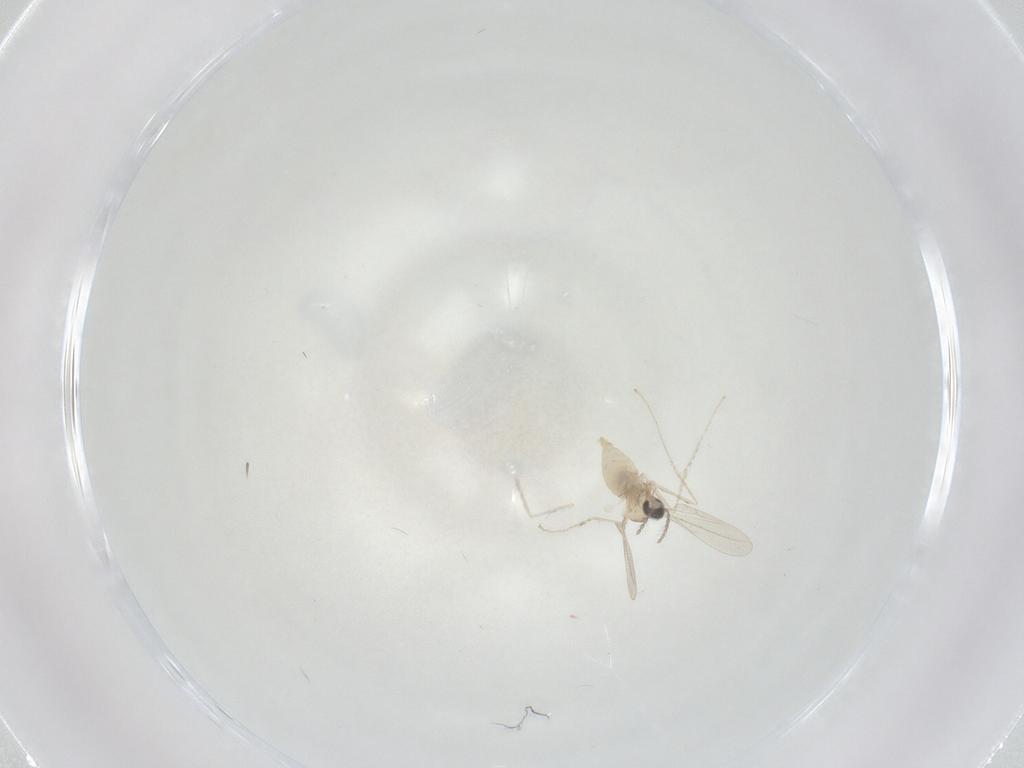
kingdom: Animalia
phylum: Arthropoda
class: Insecta
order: Diptera
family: Cecidomyiidae
